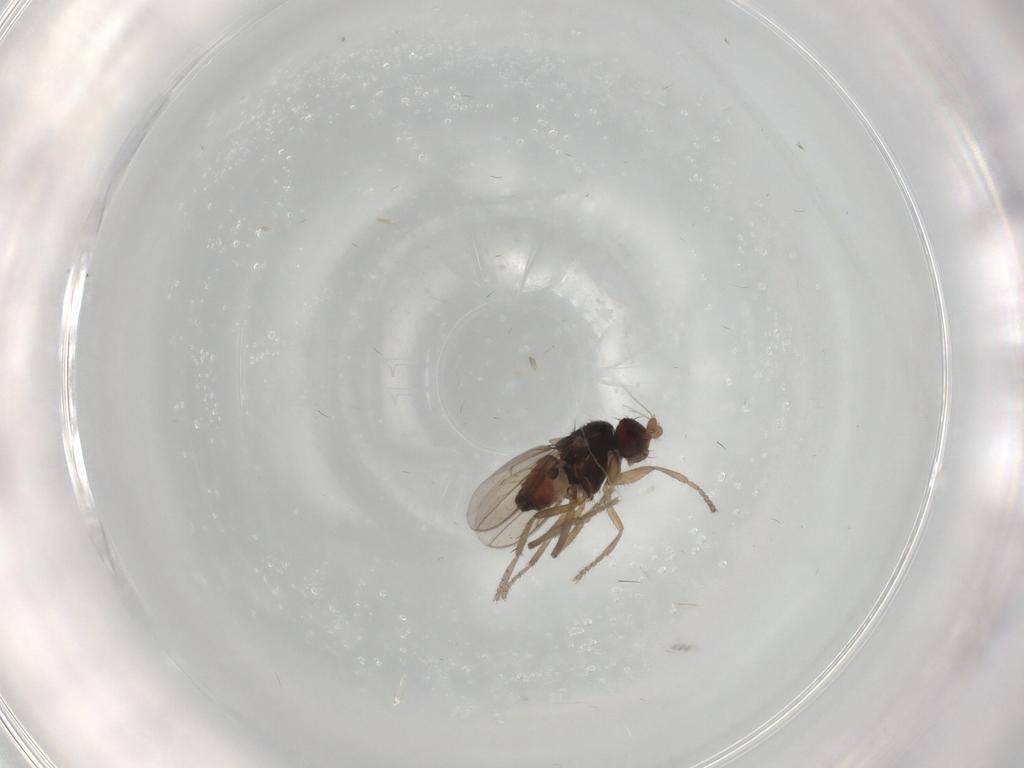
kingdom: Animalia
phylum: Arthropoda
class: Insecta
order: Diptera
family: Sphaeroceridae
